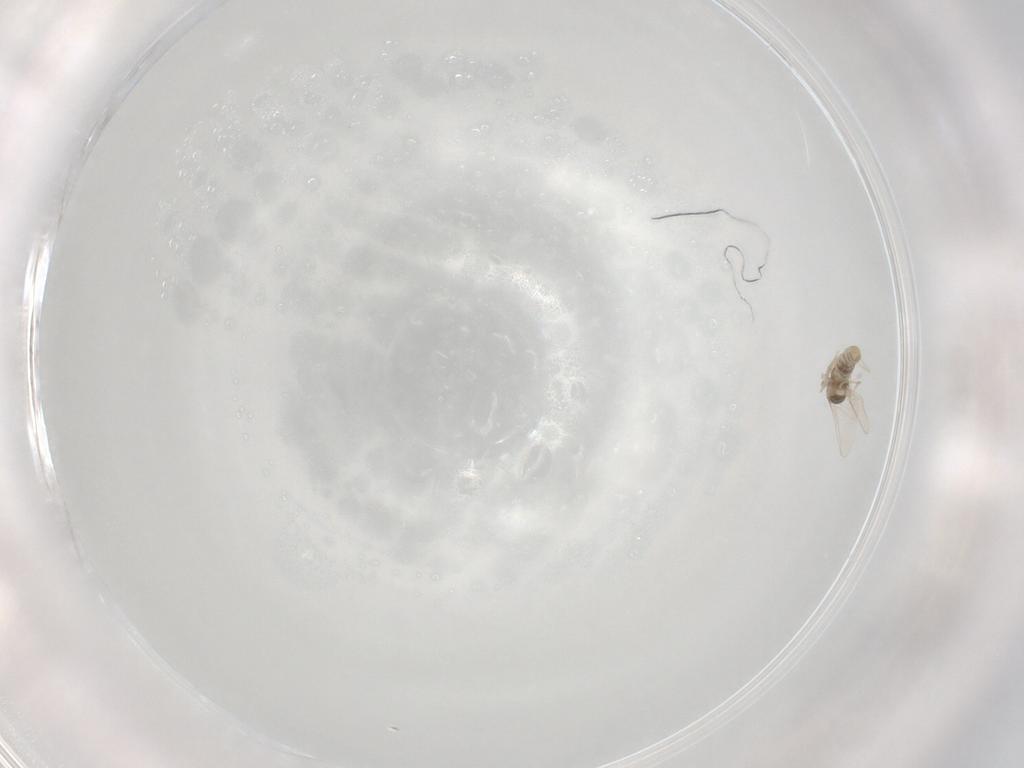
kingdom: Animalia
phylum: Arthropoda
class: Insecta
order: Diptera
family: Cecidomyiidae
